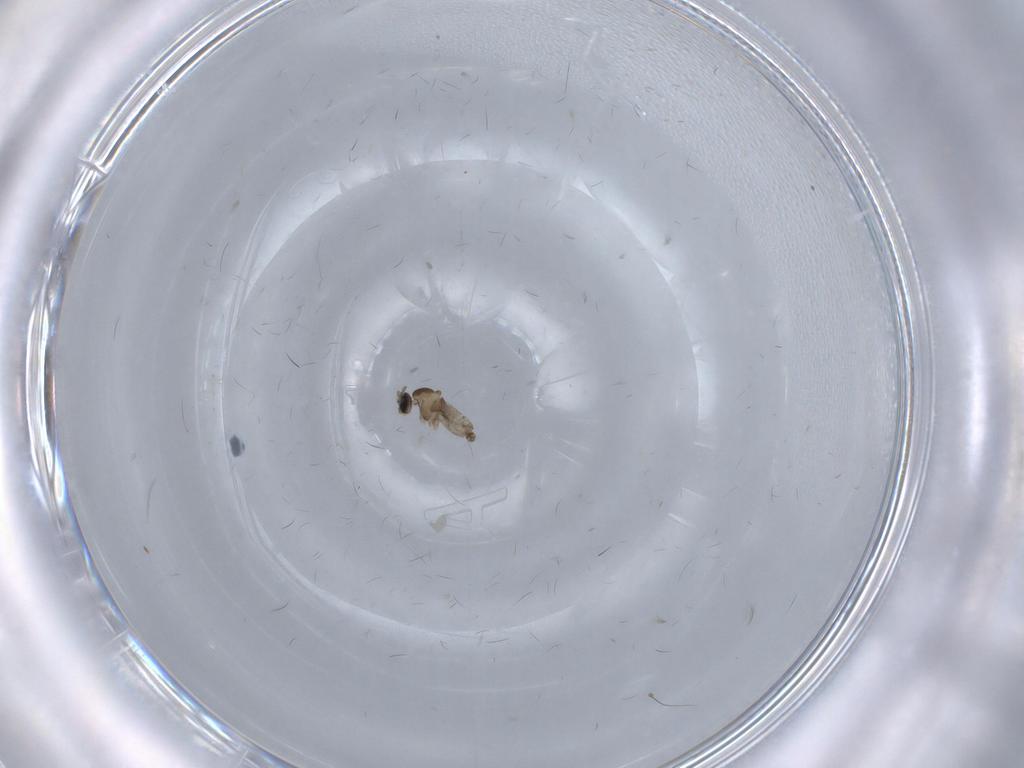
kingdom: Animalia
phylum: Arthropoda
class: Insecta
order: Diptera
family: Cecidomyiidae
